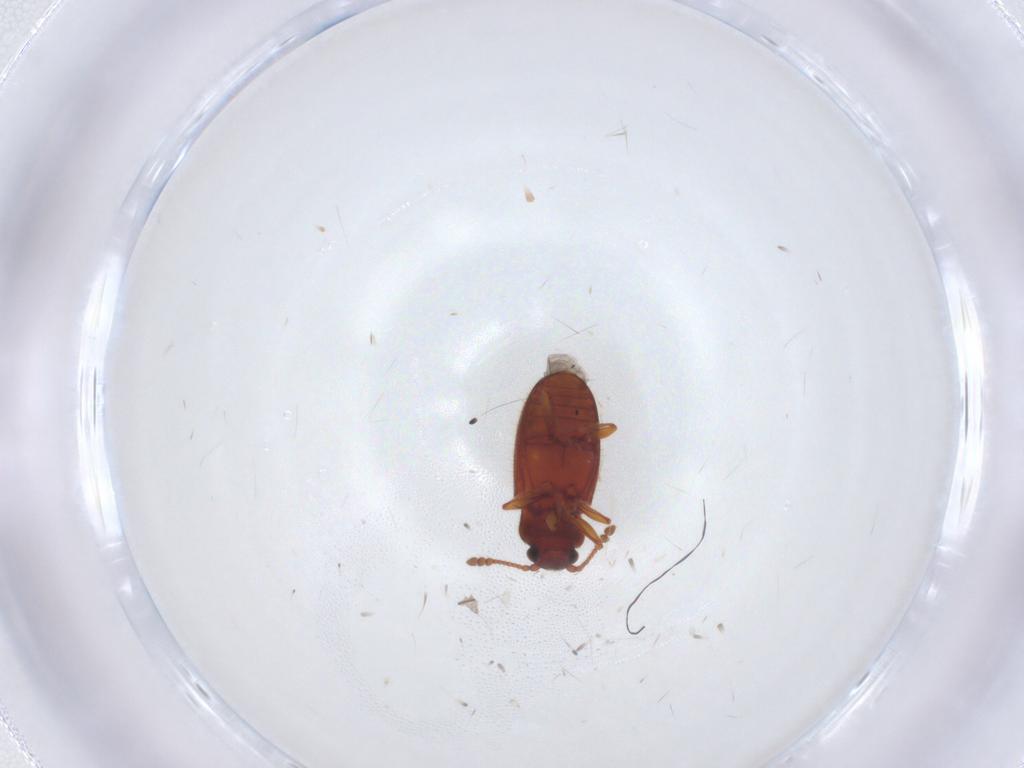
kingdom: Animalia
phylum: Arthropoda
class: Insecta
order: Coleoptera
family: Cryptophagidae
